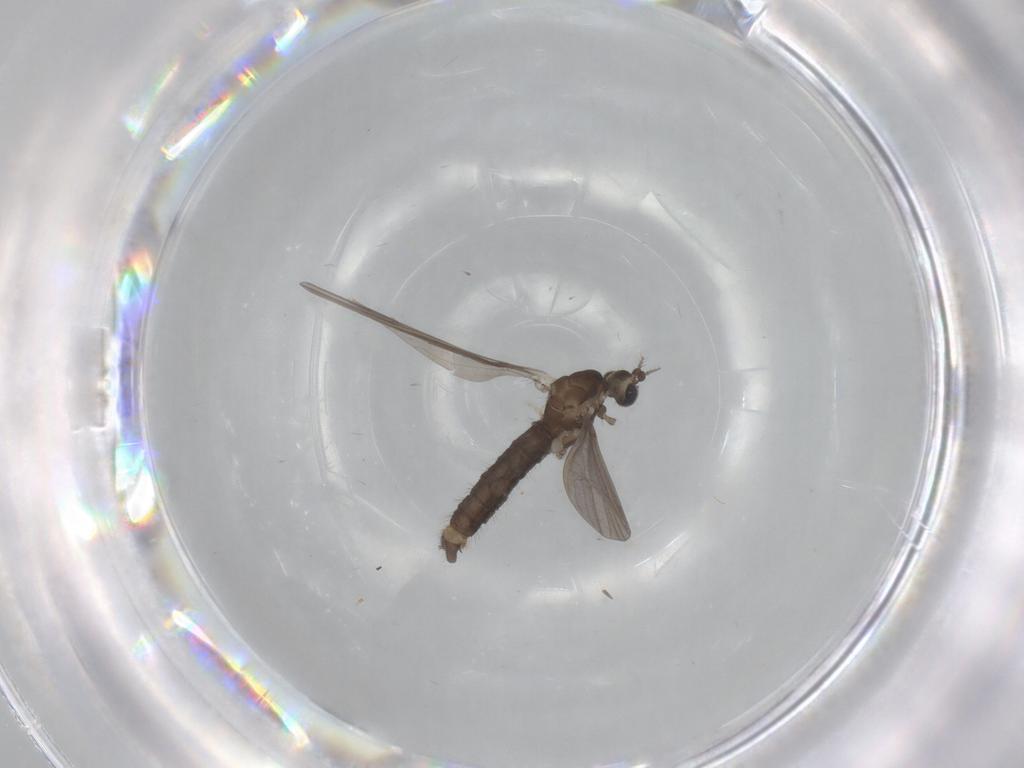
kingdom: Animalia
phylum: Arthropoda
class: Insecta
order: Diptera
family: Limoniidae
